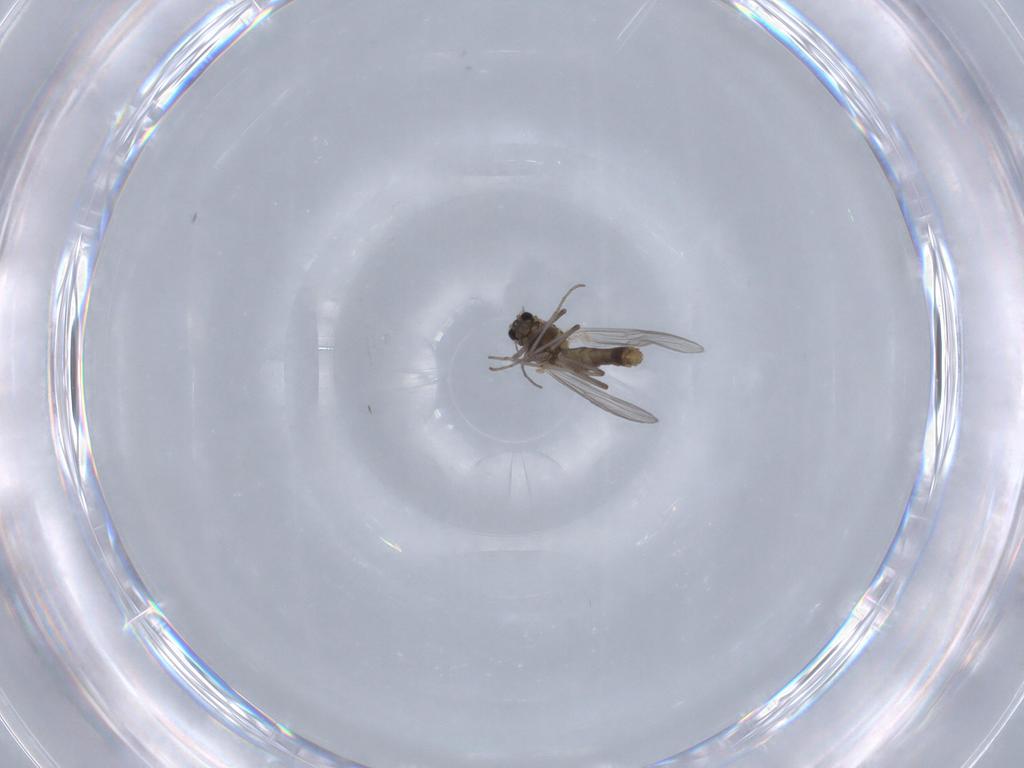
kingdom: Animalia
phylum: Arthropoda
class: Insecta
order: Diptera
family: Chironomidae
